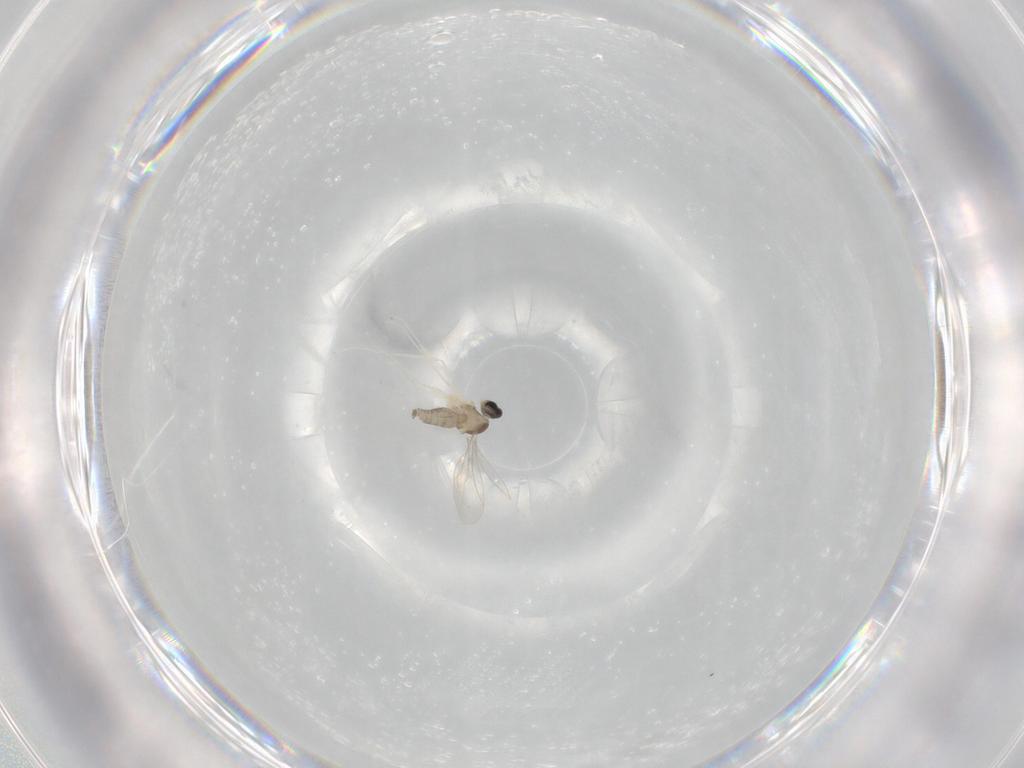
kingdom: Animalia
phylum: Arthropoda
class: Insecta
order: Diptera
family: Cecidomyiidae
